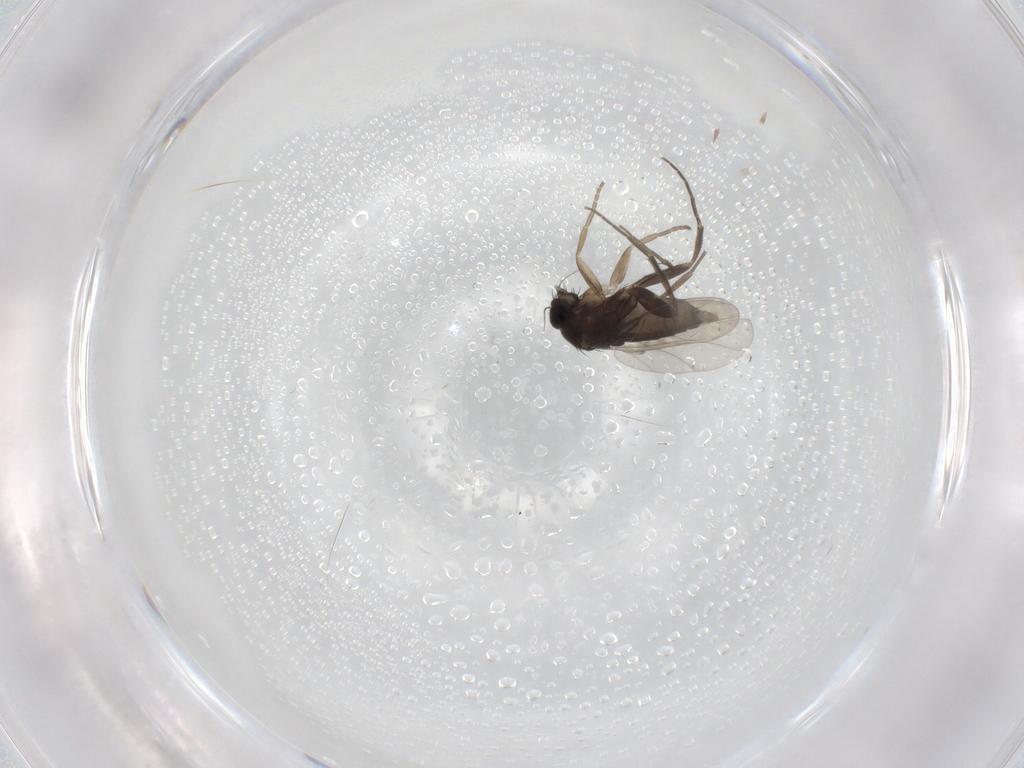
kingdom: Animalia
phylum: Arthropoda
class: Insecta
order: Diptera
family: Phoridae
